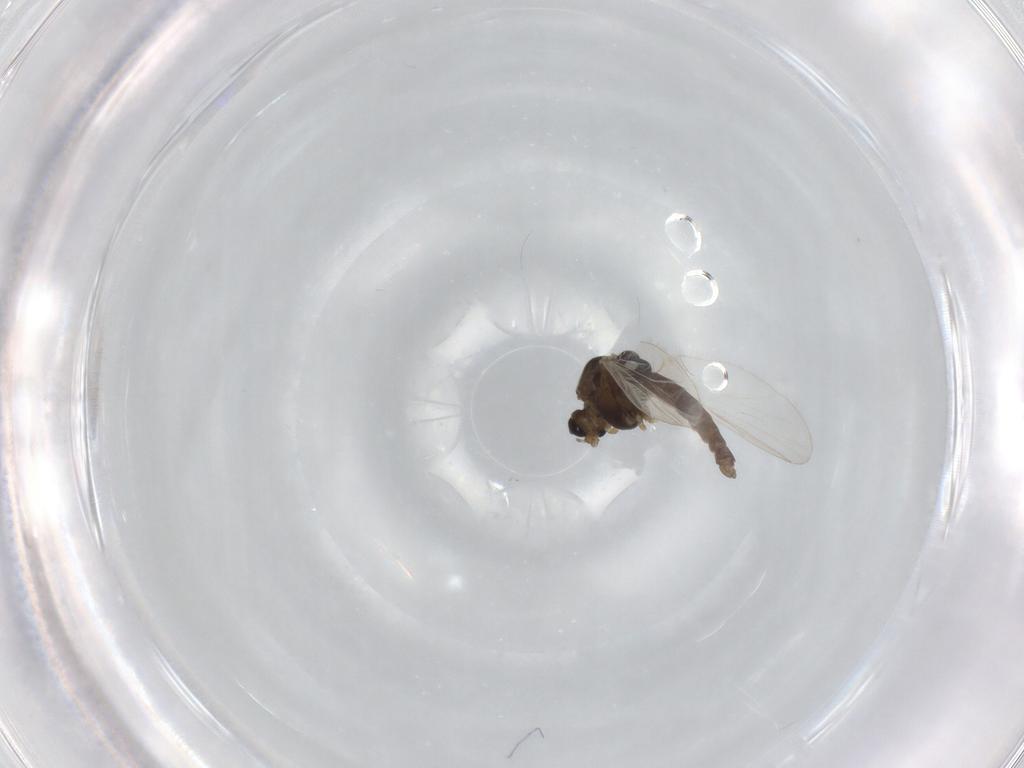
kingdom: Animalia
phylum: Arthropoda
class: Insecta
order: Diptera
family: Chironomidae
